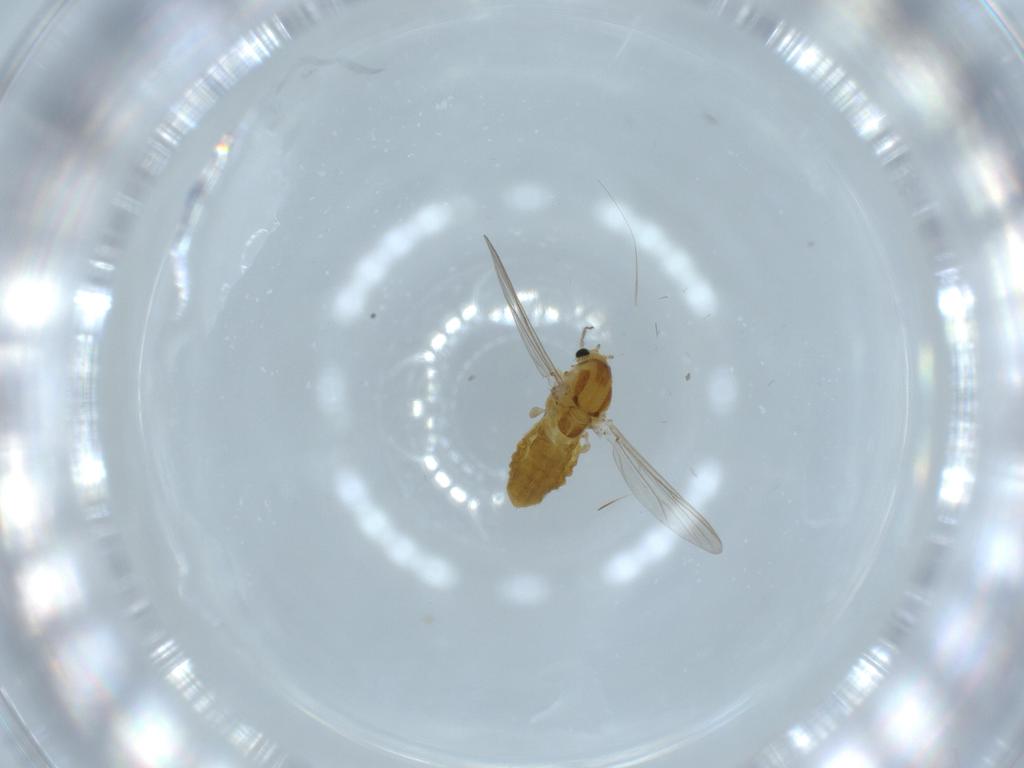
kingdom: Animalia
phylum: Arthropoda
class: Insecta
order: Diptera
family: Chironomidae
